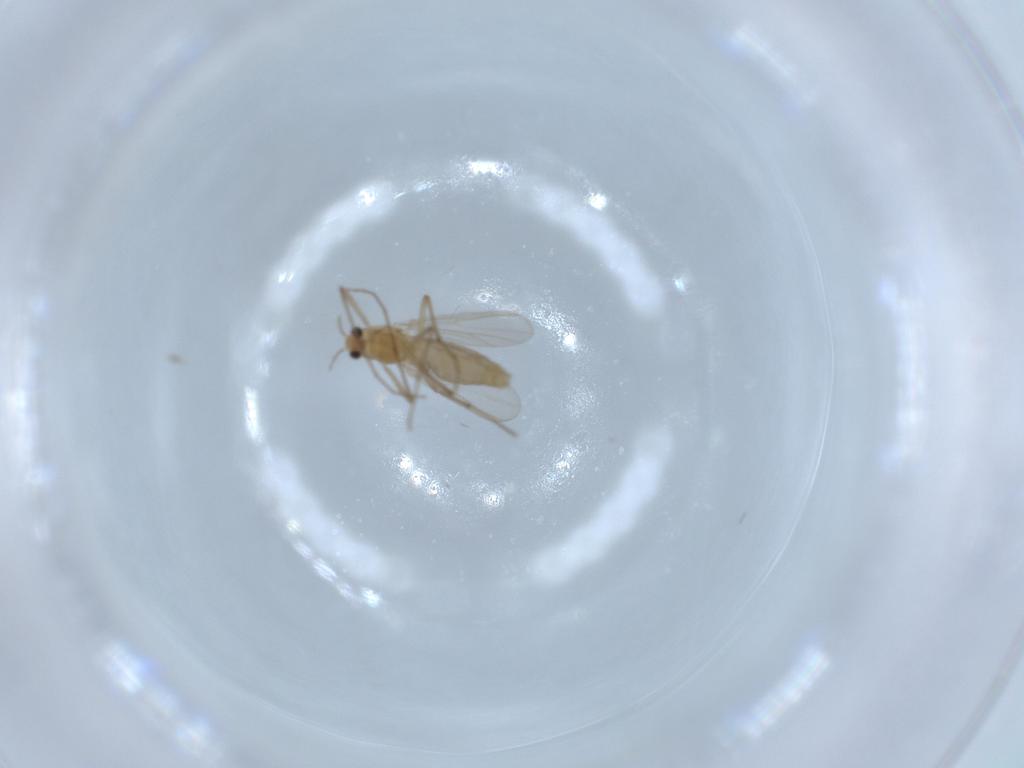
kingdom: Animalia
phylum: Arthropoda
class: Insecta
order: Diptera
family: Chironomidae
